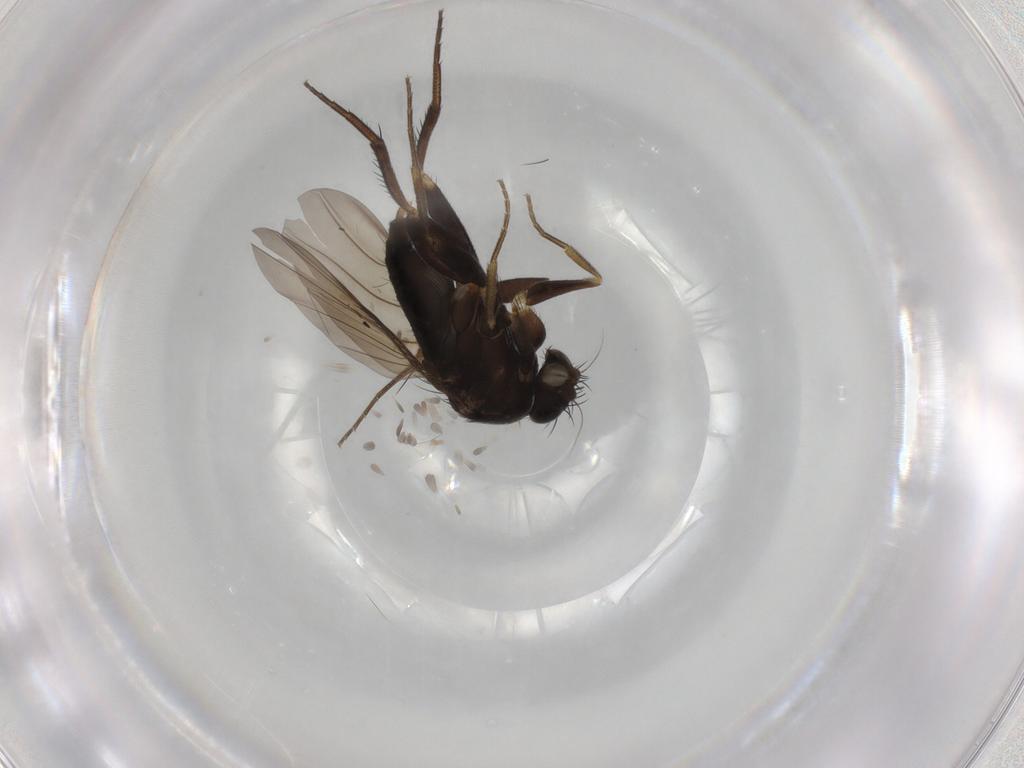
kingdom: Animalia
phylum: Arthropoda
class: Insecta
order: Diptera
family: Phoridae
